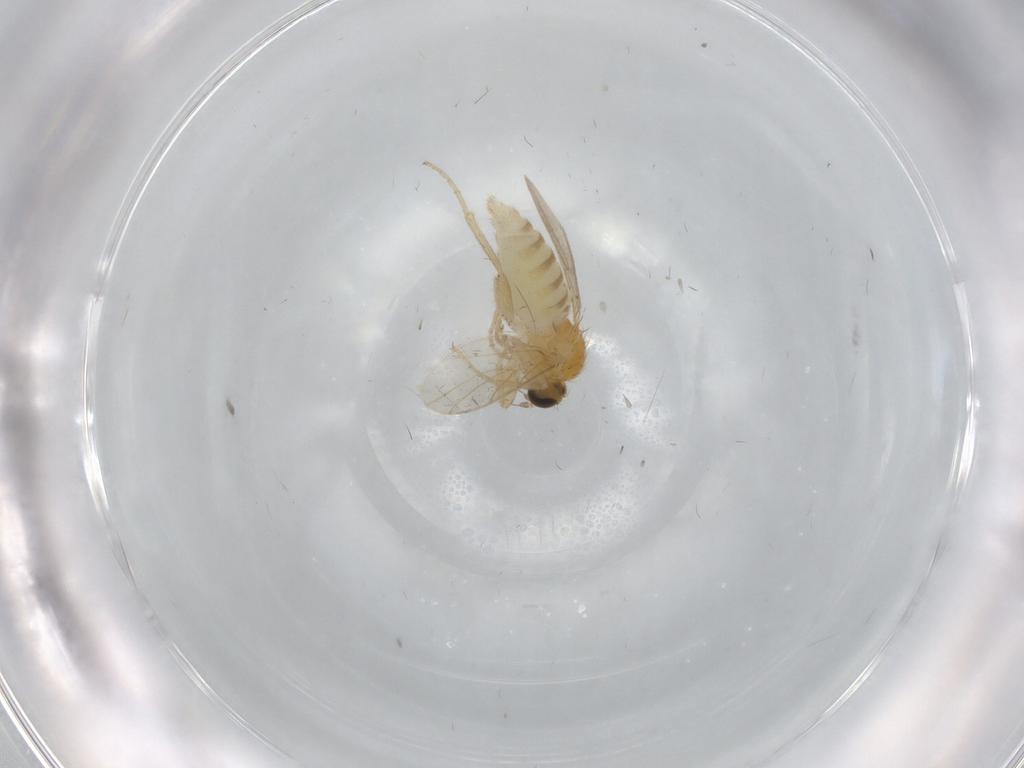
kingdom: Animalia
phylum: Arthropoda
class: Insecta
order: Diptera
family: Hybotidae
